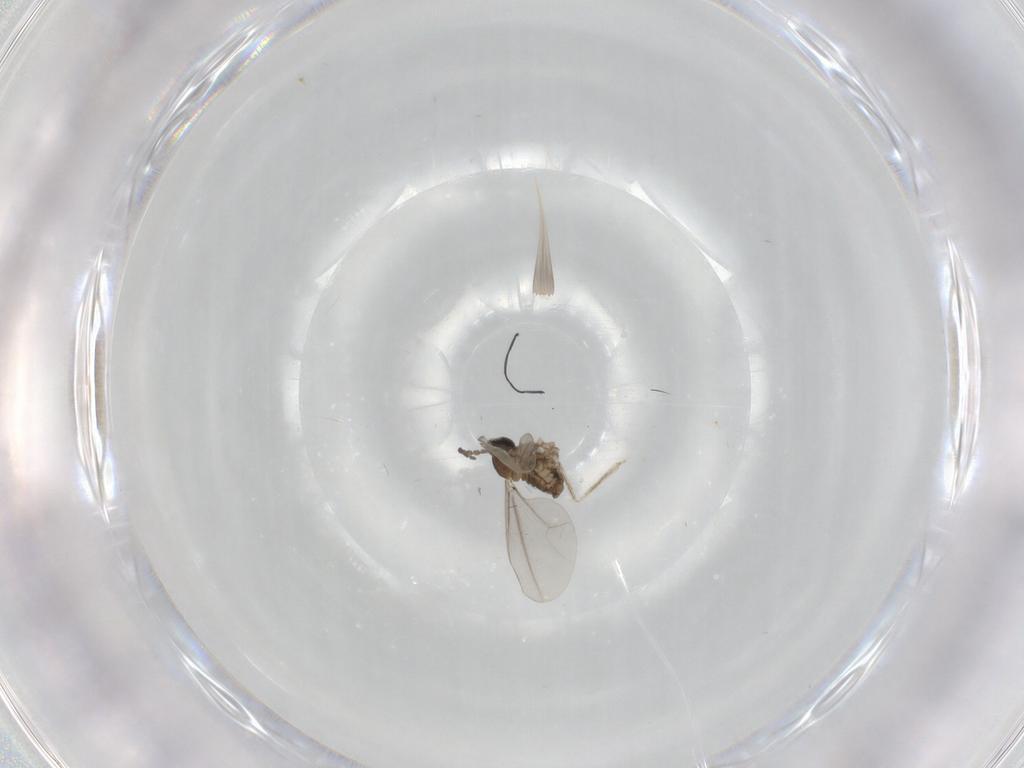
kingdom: Animalia
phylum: Arthropoda
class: Insecta
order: Diptera
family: Cecidomyiidae
